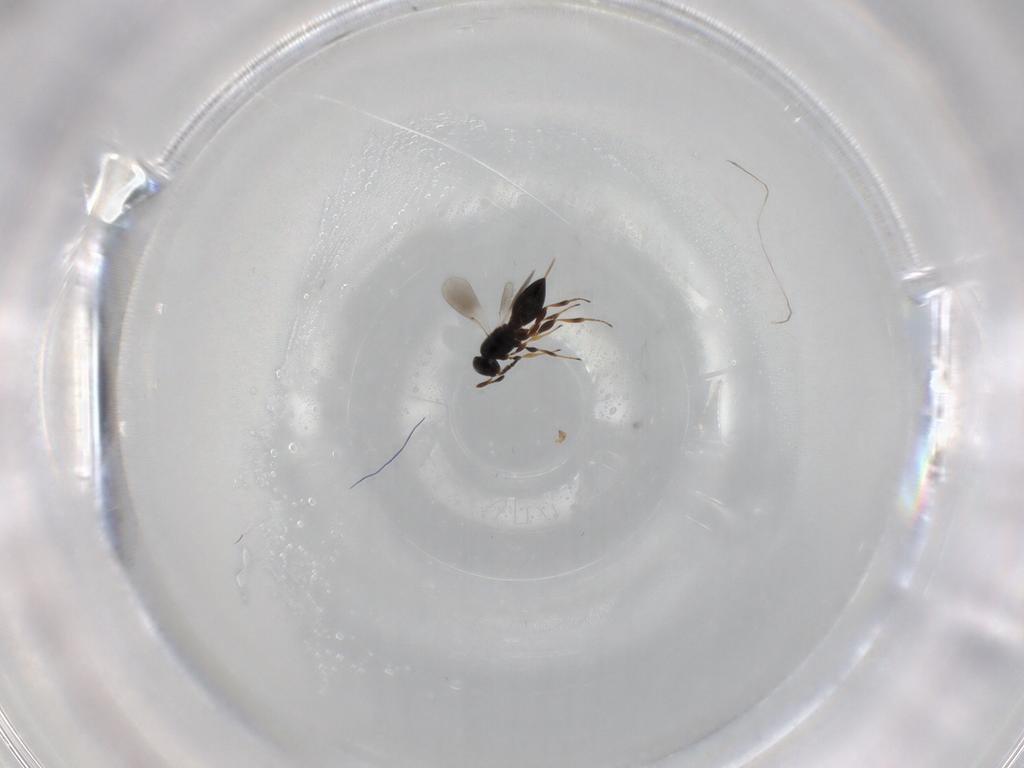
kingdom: Animalia
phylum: Arthropoda
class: Insecta
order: Hymenoptera
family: Platygastridae
